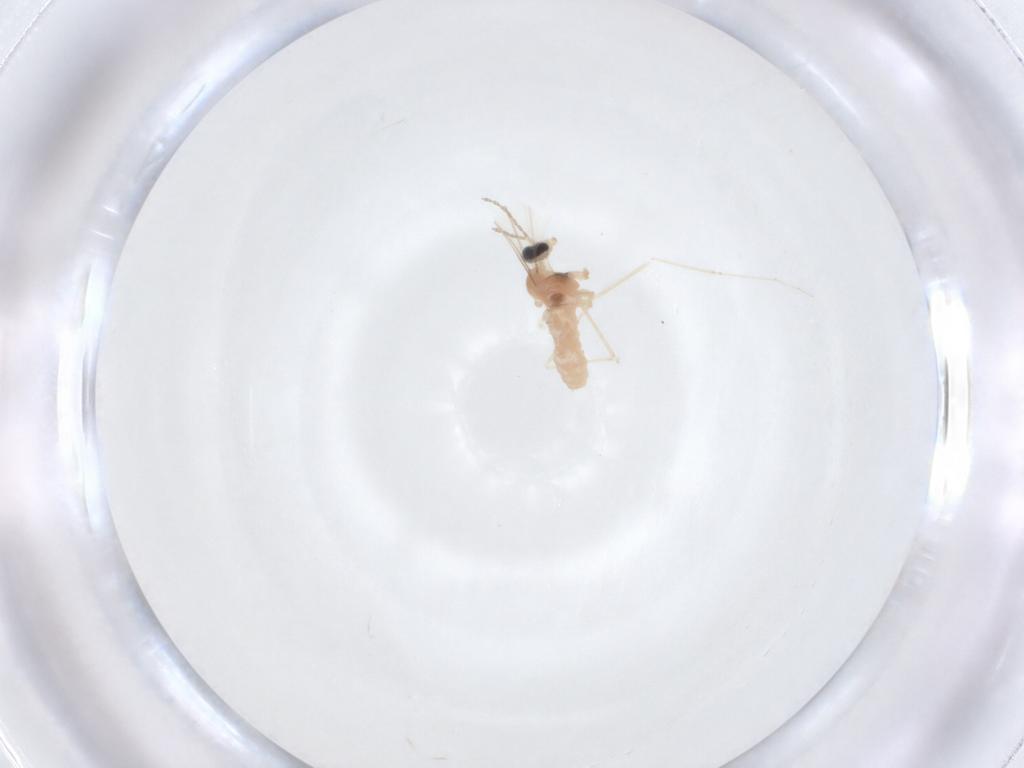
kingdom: Animalia
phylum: Arthropoda
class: Insecta
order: Diptera
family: Cecidomyiidae
